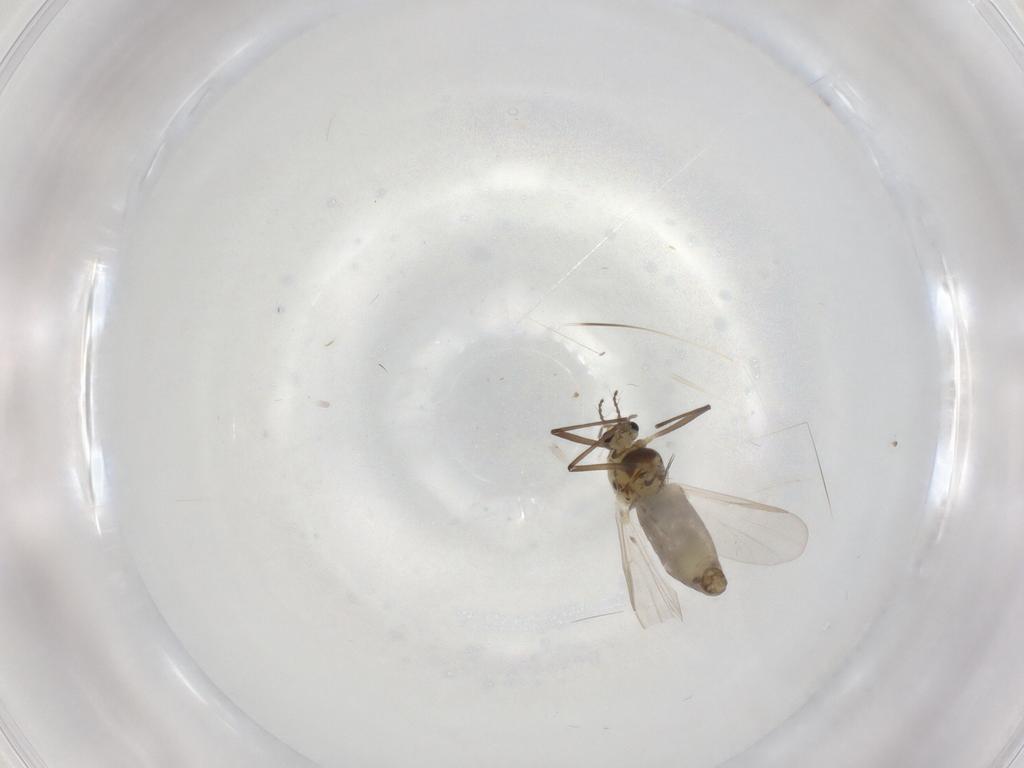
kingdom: Animalia
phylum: Arthropoda
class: Insecta
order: Diptera
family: Chironomidae
